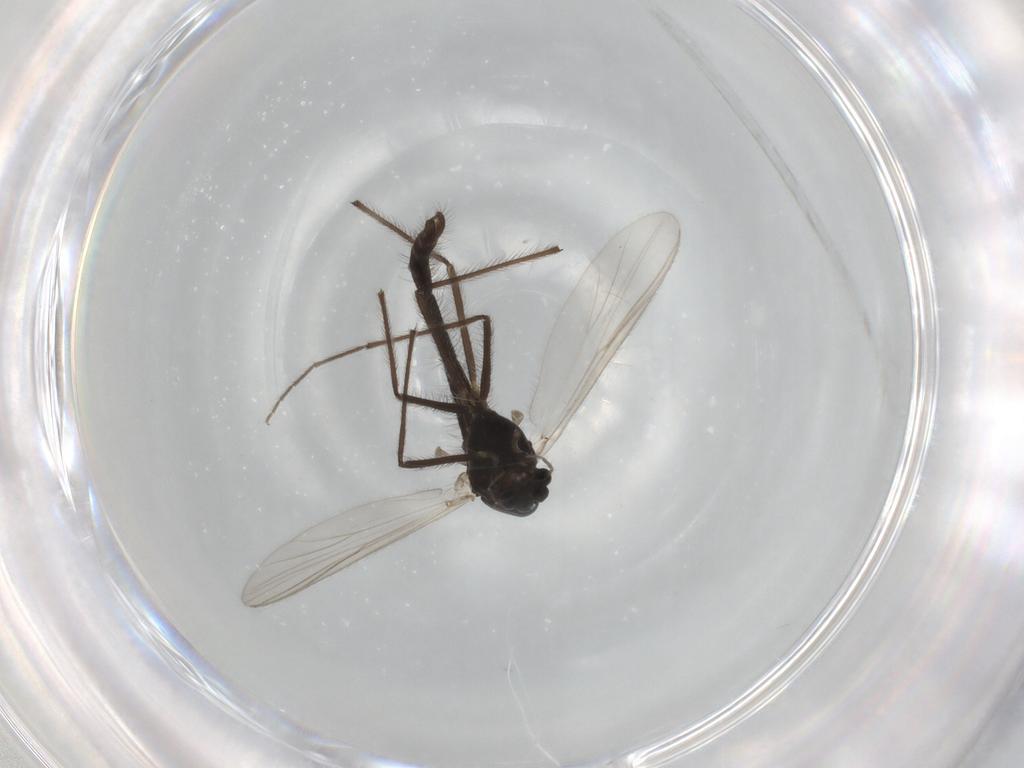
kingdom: Animalia
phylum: Arthropoda
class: Insecta
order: Diptera
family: Chironomidae
